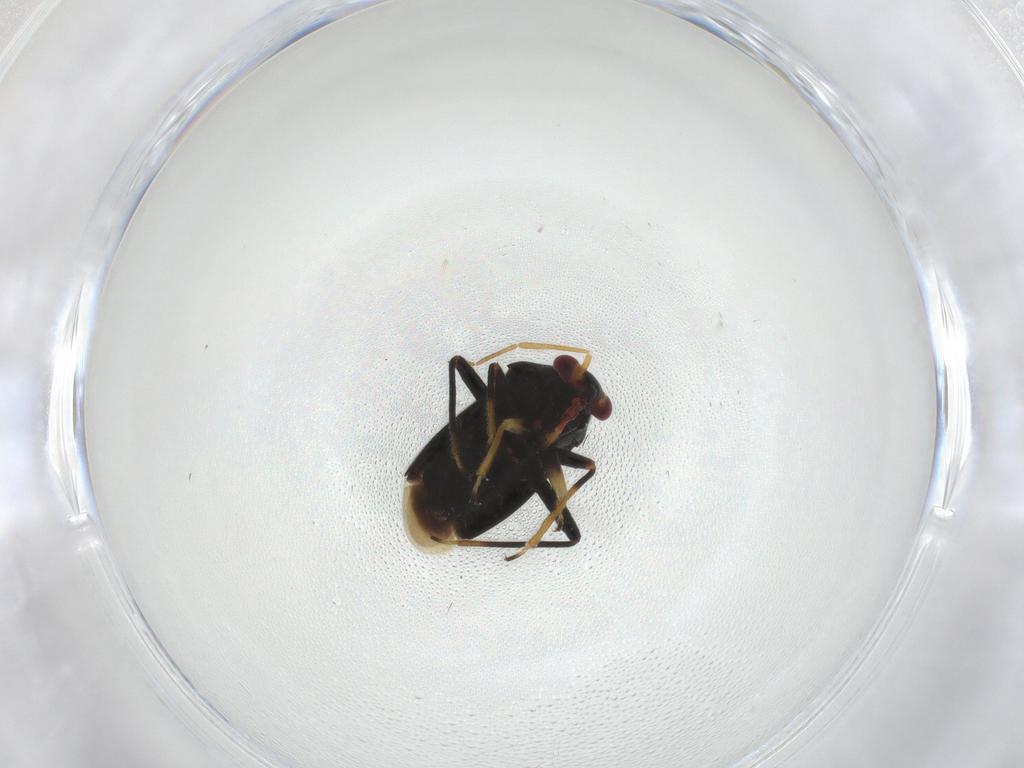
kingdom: Animalia
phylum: Arthropoda
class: Insecta
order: Hemiptera
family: Miridae
